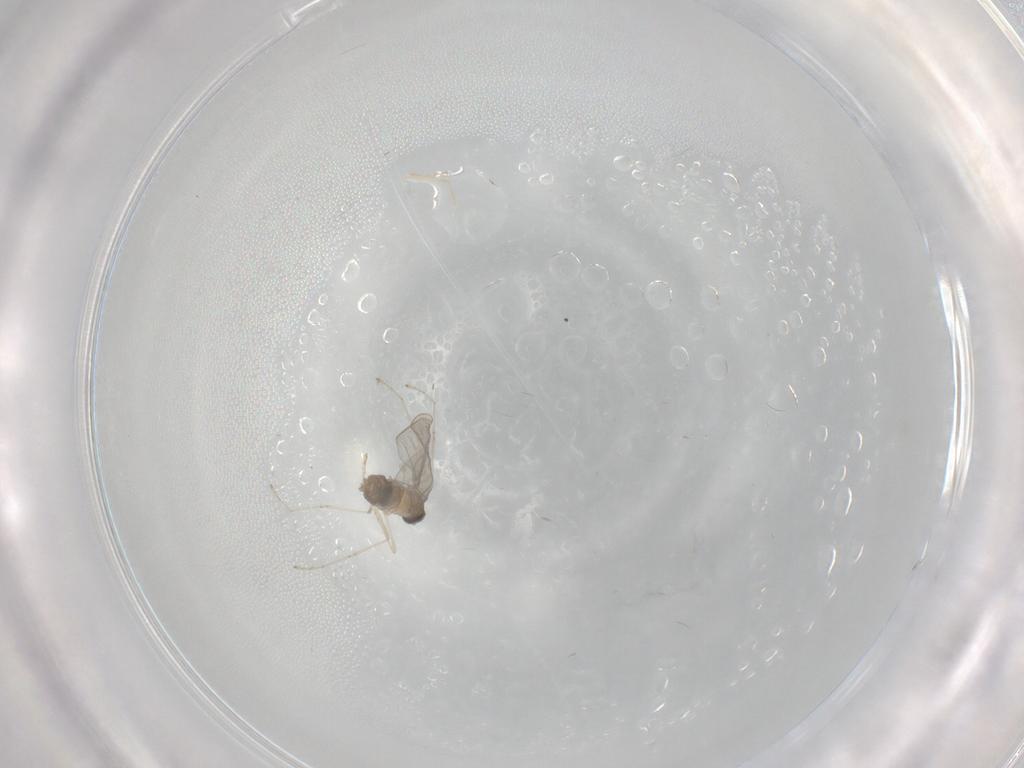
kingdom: Animalia
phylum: Arthropoda
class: Insecta
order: Diptera
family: Cecidomyiidae
